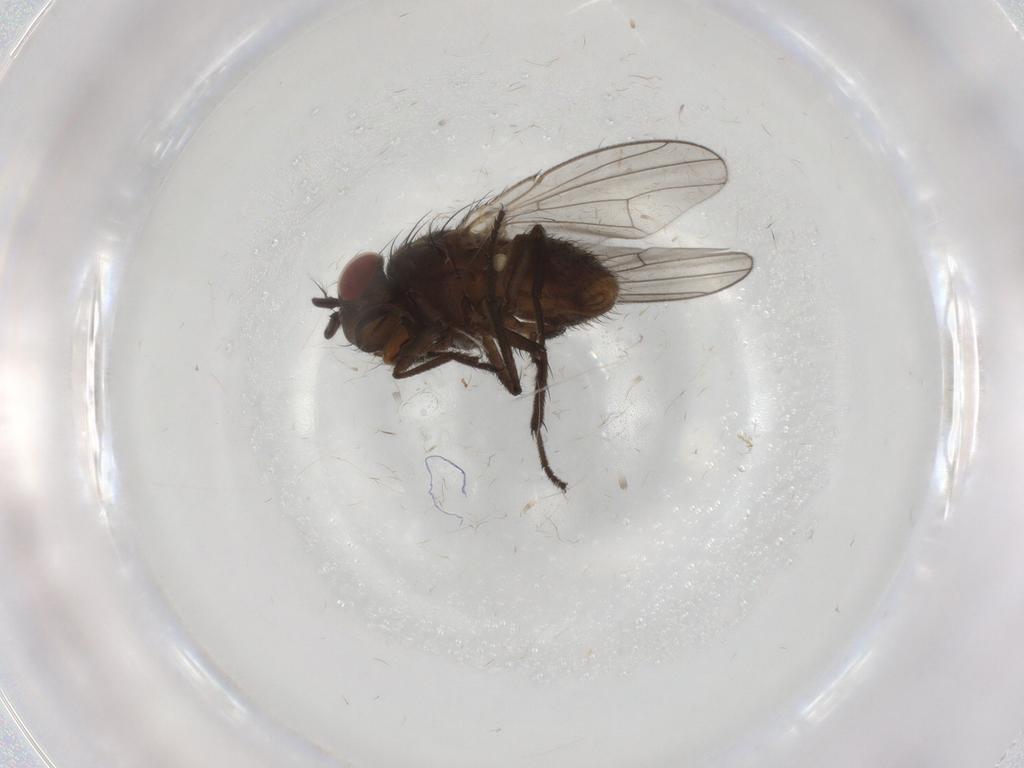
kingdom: Animalia
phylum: Arthropoda
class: Insecta
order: Diptera
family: Ephydridae
